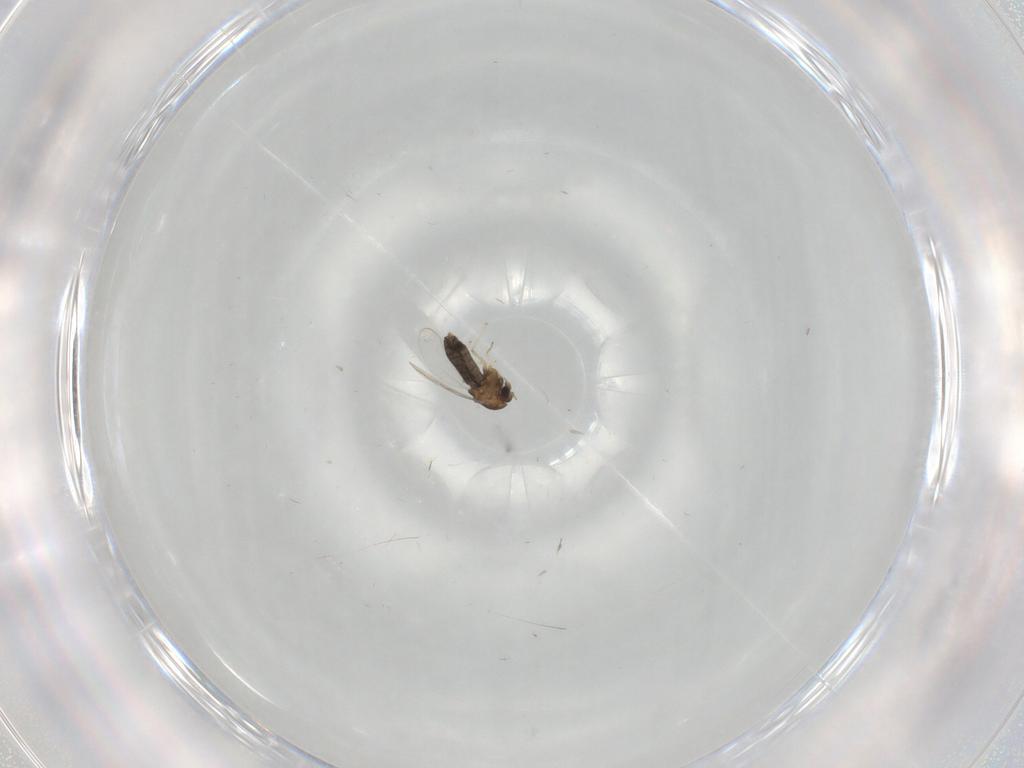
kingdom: Animalia
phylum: Arthropoda
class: Insecta
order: Diptera
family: Chironomidae
